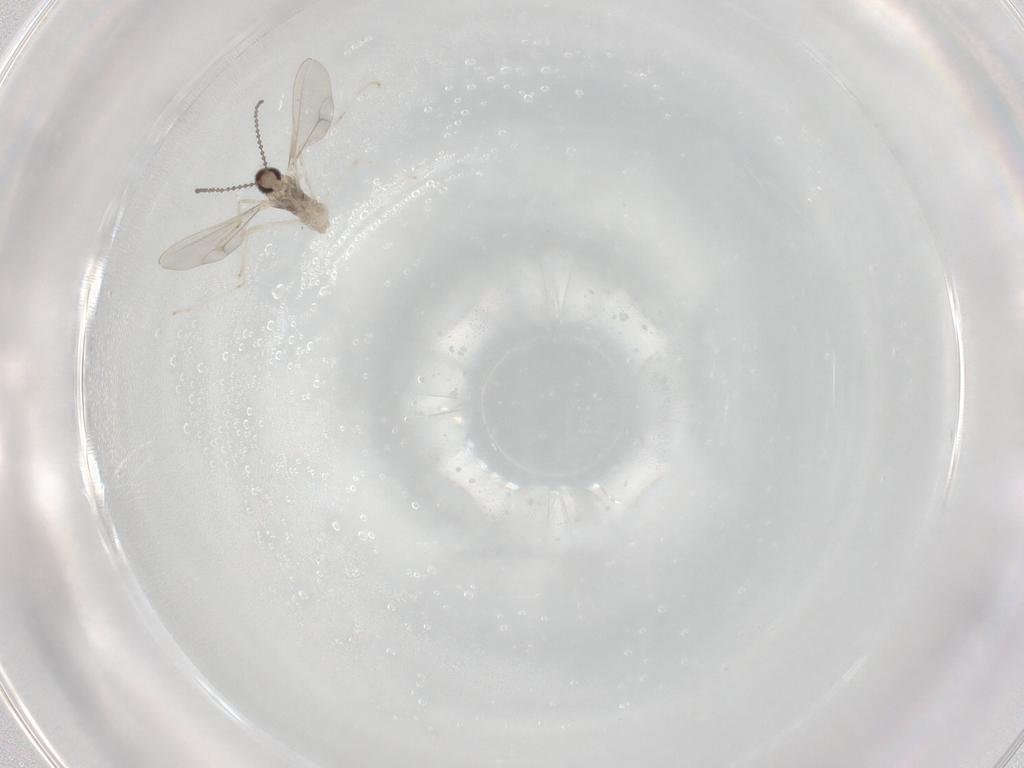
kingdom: Animalia
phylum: Arthropoda
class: Insecta
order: Diptera
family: Cecidomyiidae
